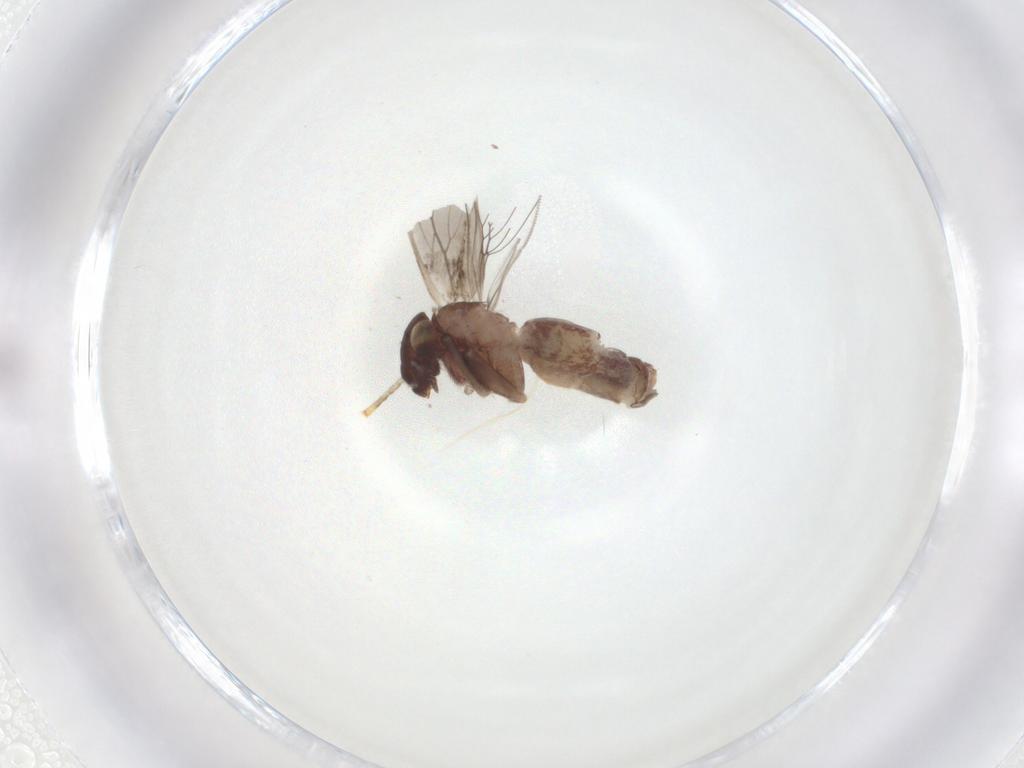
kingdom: Animalia
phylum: Arthropoda
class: Insecta
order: Psocodea
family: Lepidopsocidae
